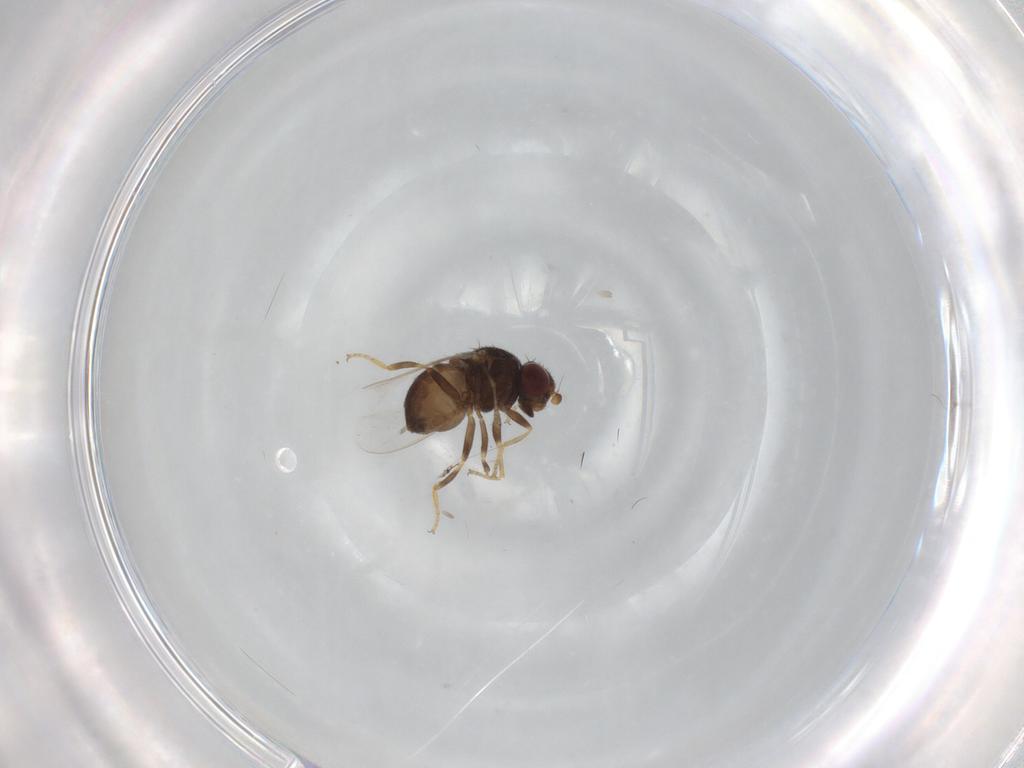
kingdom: Animalia
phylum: Arthropoda
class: Insecta
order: Diptera
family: Chloropidae
